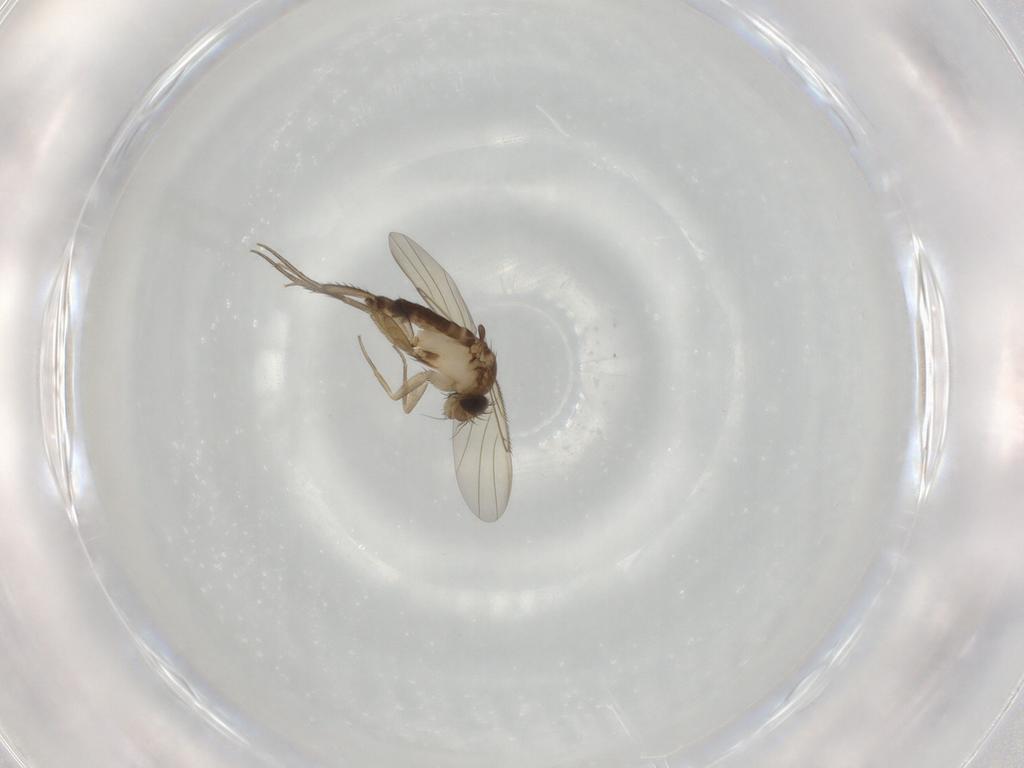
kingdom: Animalia
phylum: Arthropoda
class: Insecta
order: Diptera
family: Phoridae
